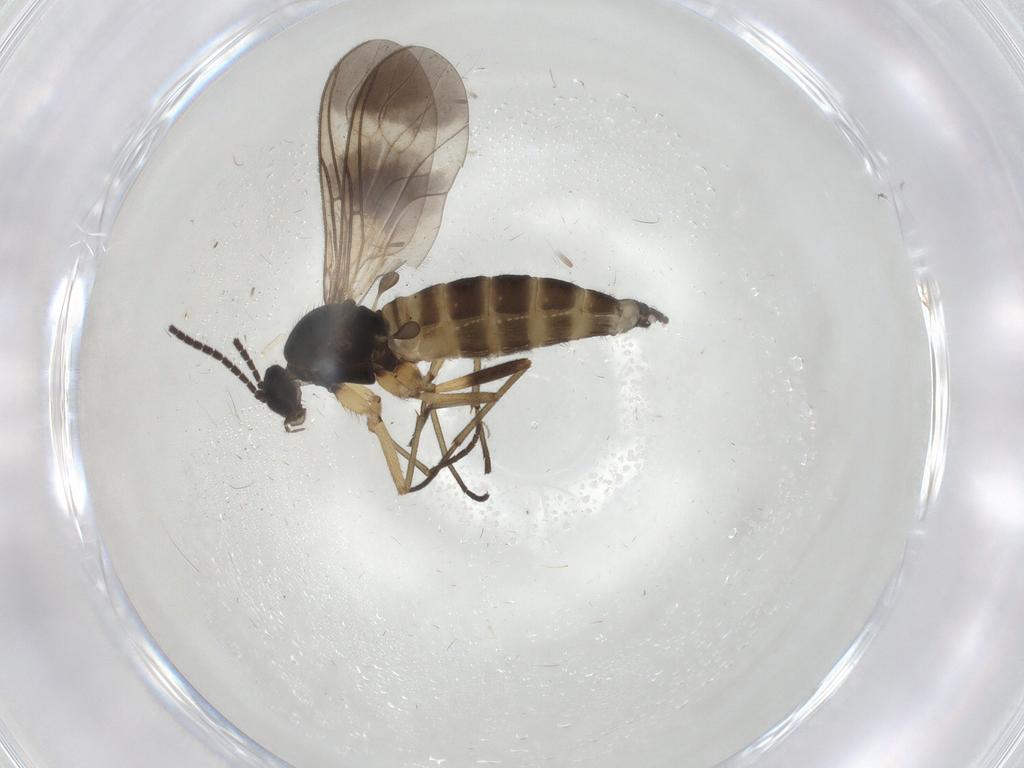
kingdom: Animalia
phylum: Arthropoda
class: Insecta
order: Diptera
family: Sciaridae
